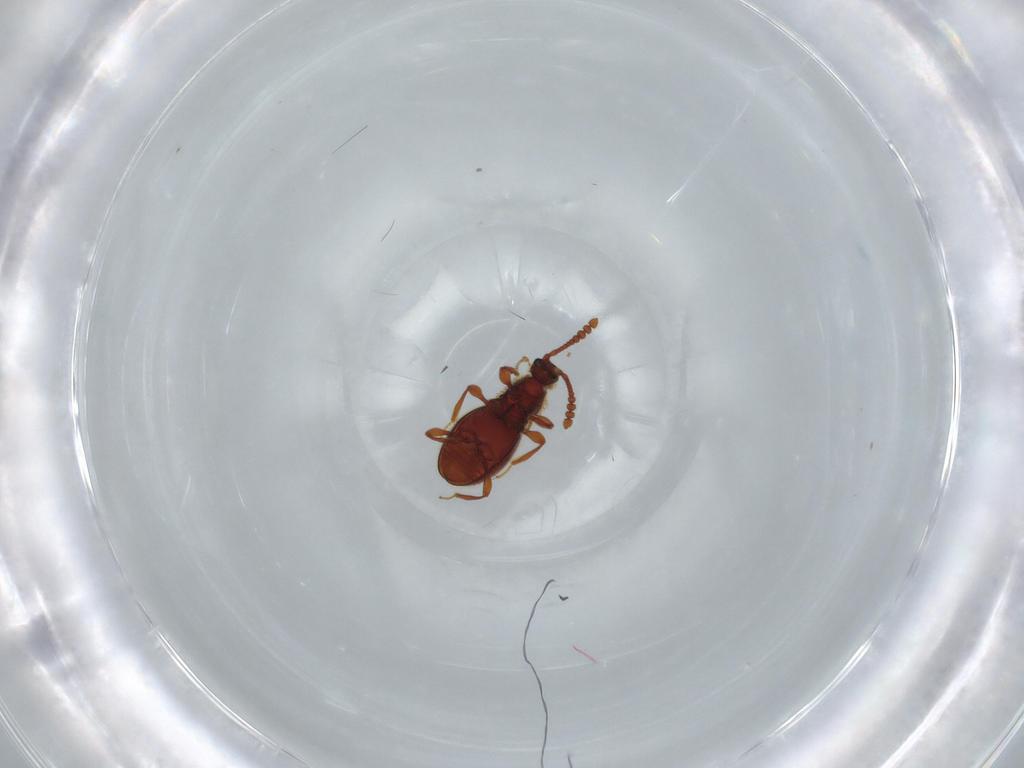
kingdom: Animalia
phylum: Arthropoda
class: Insecta
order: Coleoptera
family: Staphylinidae
